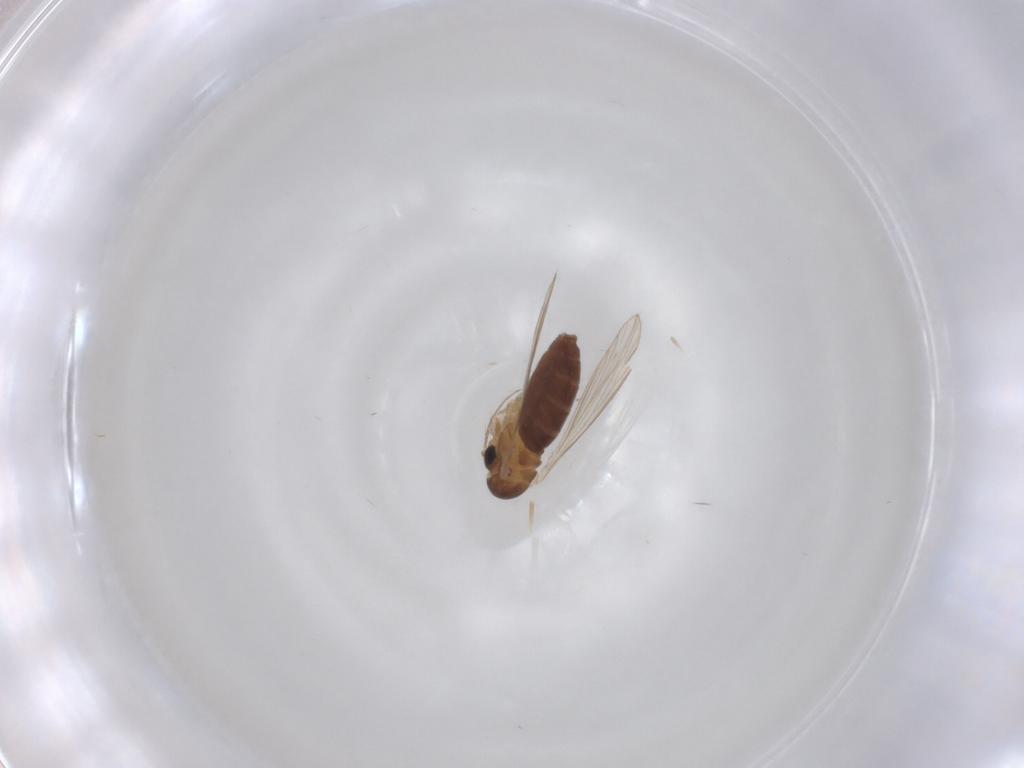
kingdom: Animalia
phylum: Arthropoda
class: Insecta
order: Diptera
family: Psychodidae
